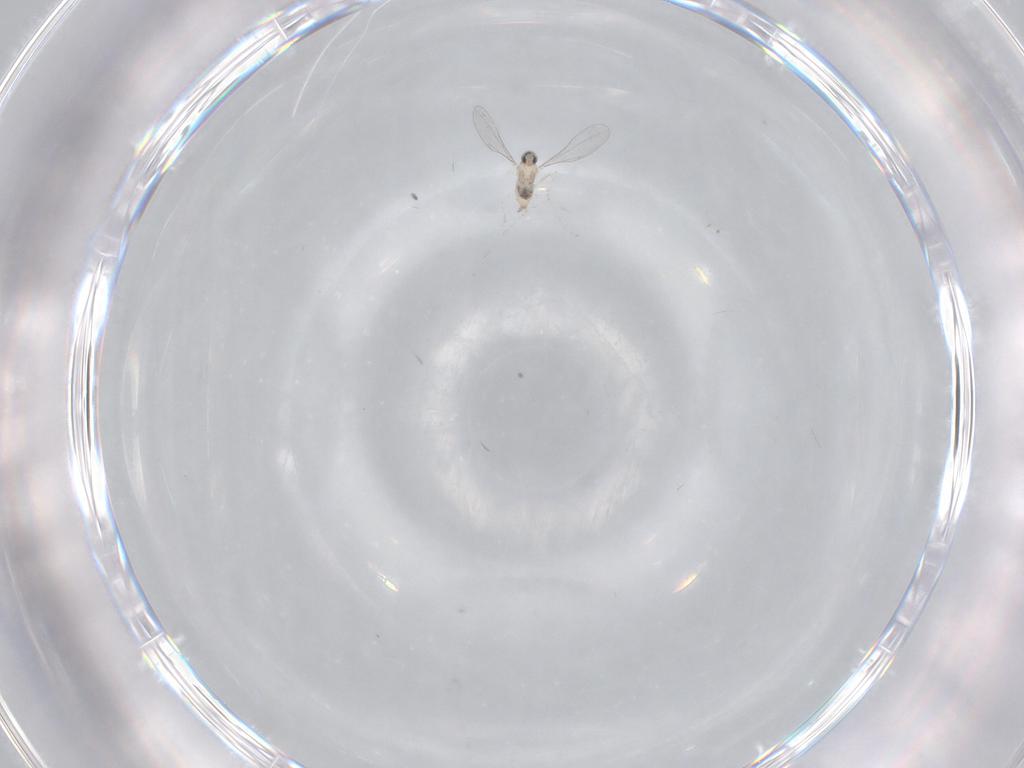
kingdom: Animalia
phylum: Arthropoda
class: Insecta
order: Diptera
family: Cecidomyiidae
